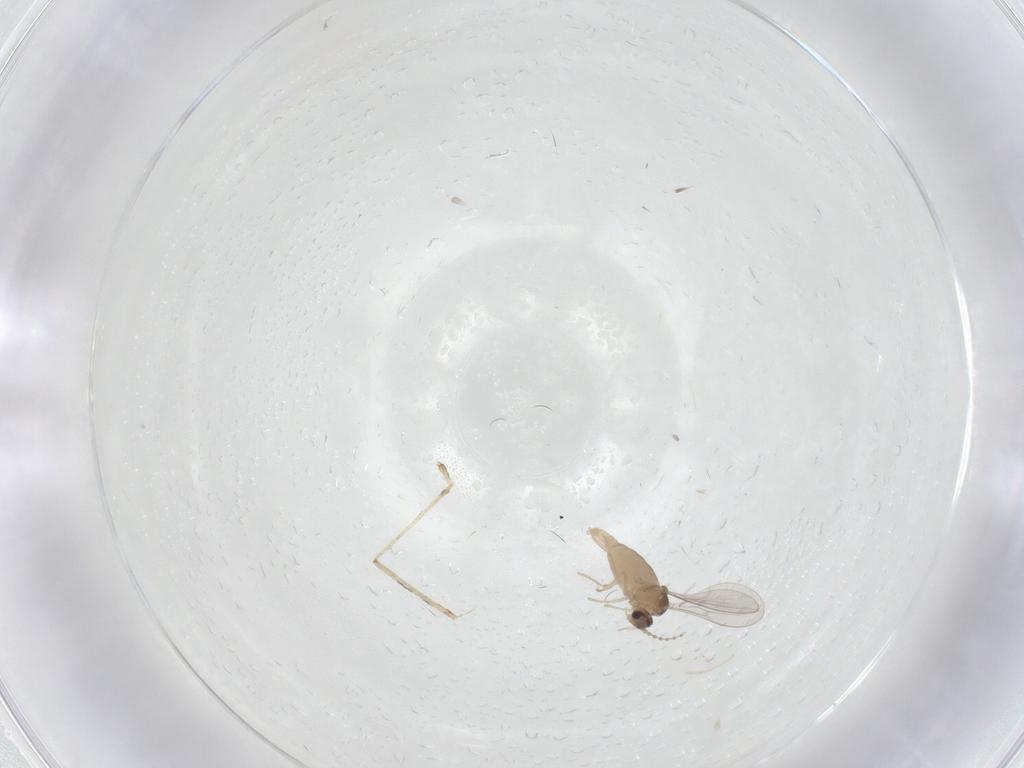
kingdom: Animalia
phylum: Arthropoda
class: Insecta
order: Diptera
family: Cecidomyiidae
